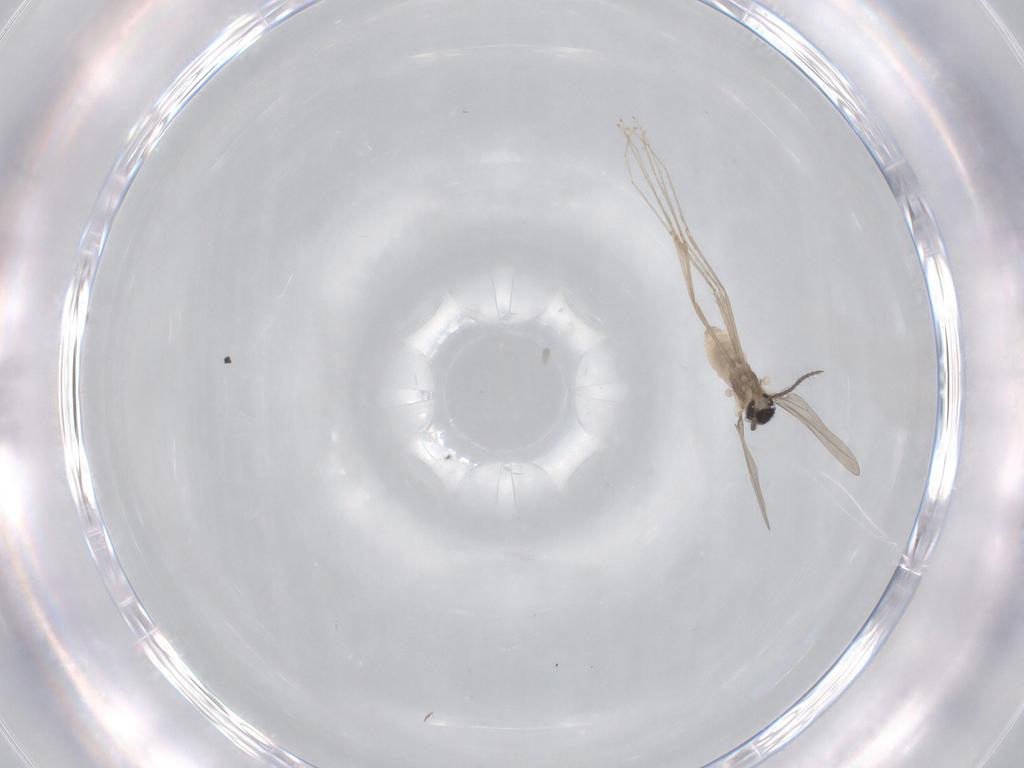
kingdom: Animalia
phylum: Arthropoda
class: Insecta
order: Diptera
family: Cecidomyiidae
